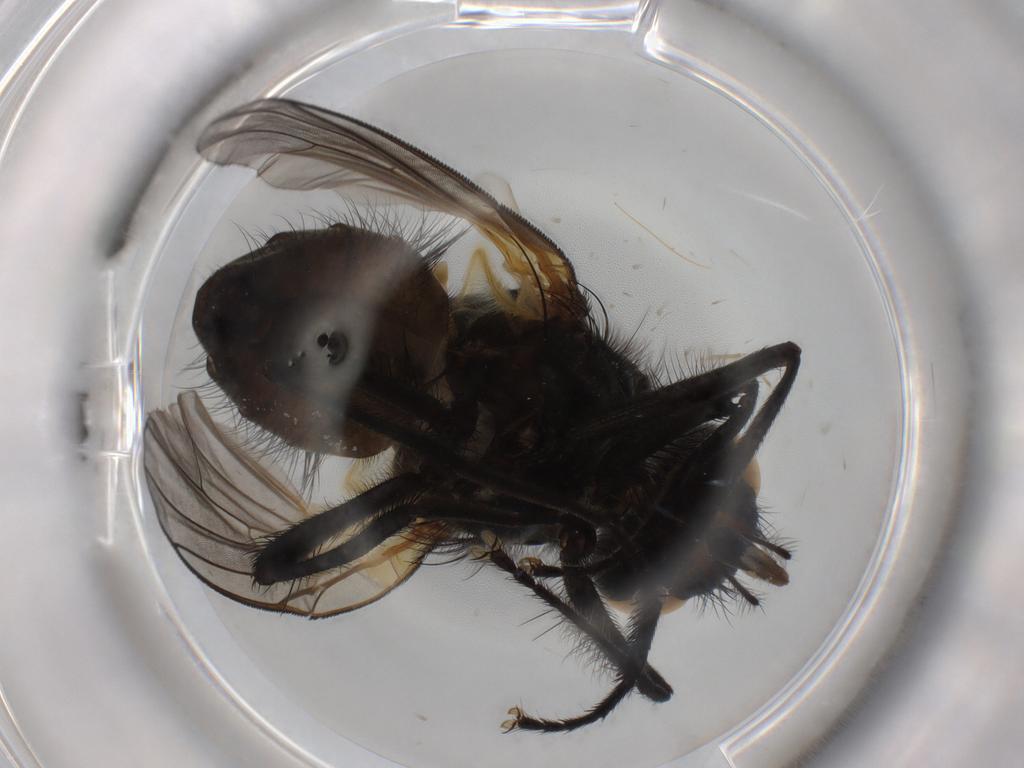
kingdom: Animalia
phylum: Arthropoda
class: Insecta
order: Diptera
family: Muscidae
